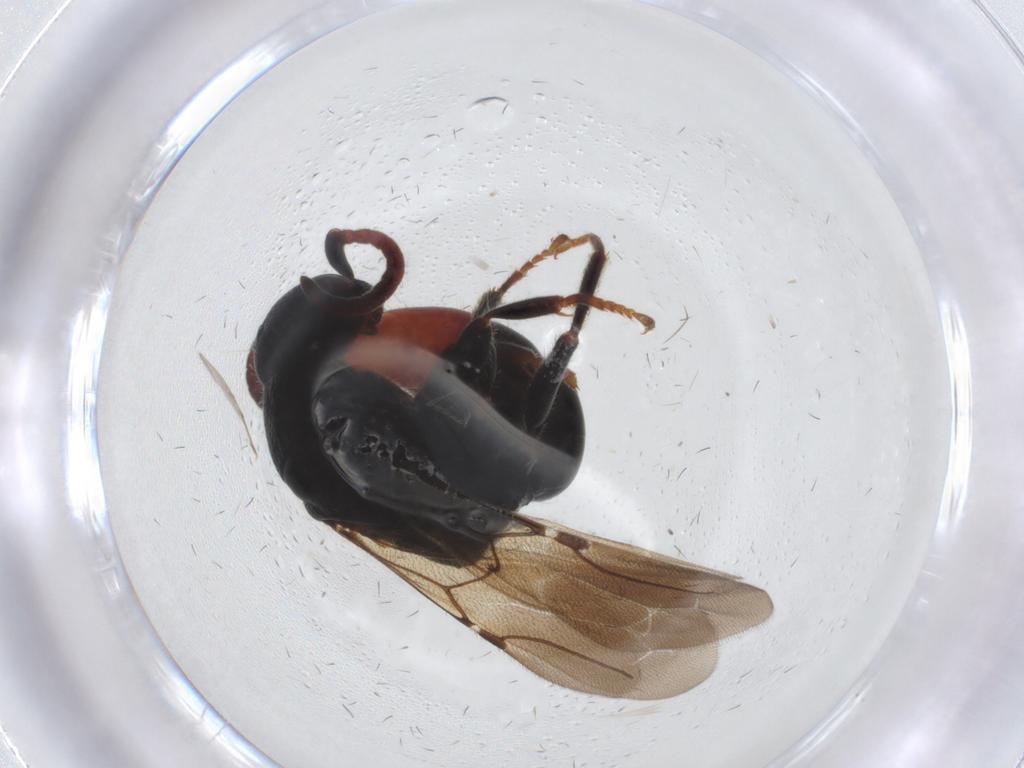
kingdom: Animalia
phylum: Arthropoda
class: Insecta
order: Hymenoptera
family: Bethylidae
